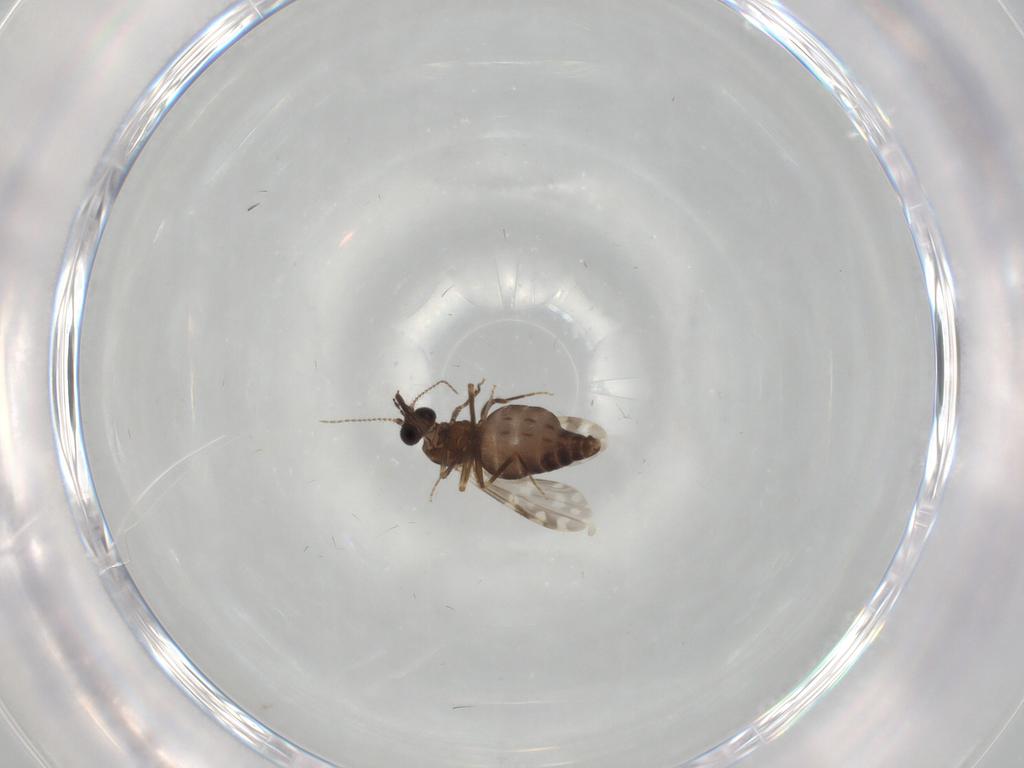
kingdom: Animalia
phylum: Arthropoda
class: Insecta
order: Diptera
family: Ceratopogonidae
